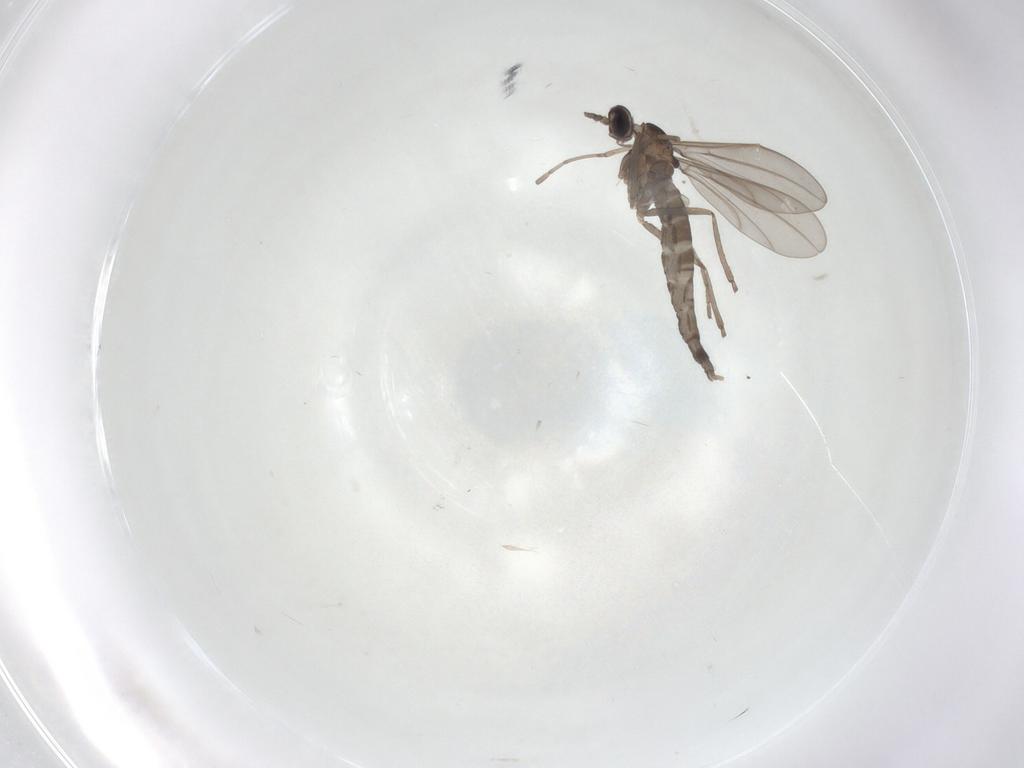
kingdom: Animalia
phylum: Arthropoda
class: Insecta
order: Diptera
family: Cecidomyiidae
